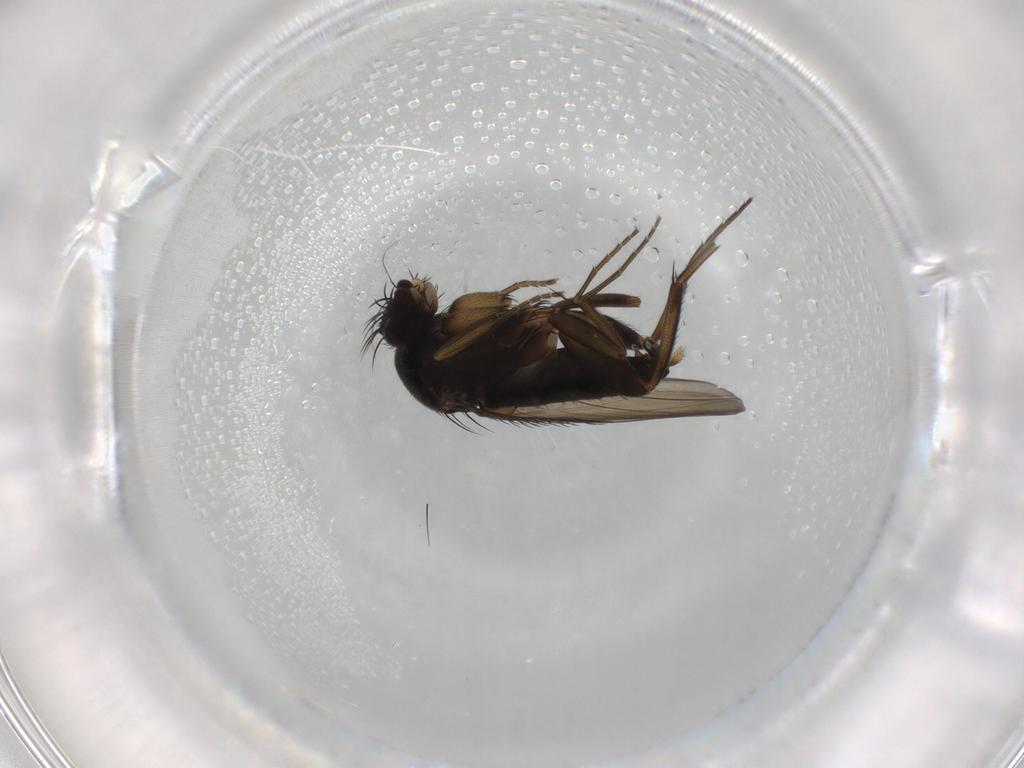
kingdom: Animalia
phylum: Arthropoda
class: Insecta
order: Diptera
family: Phoridae
